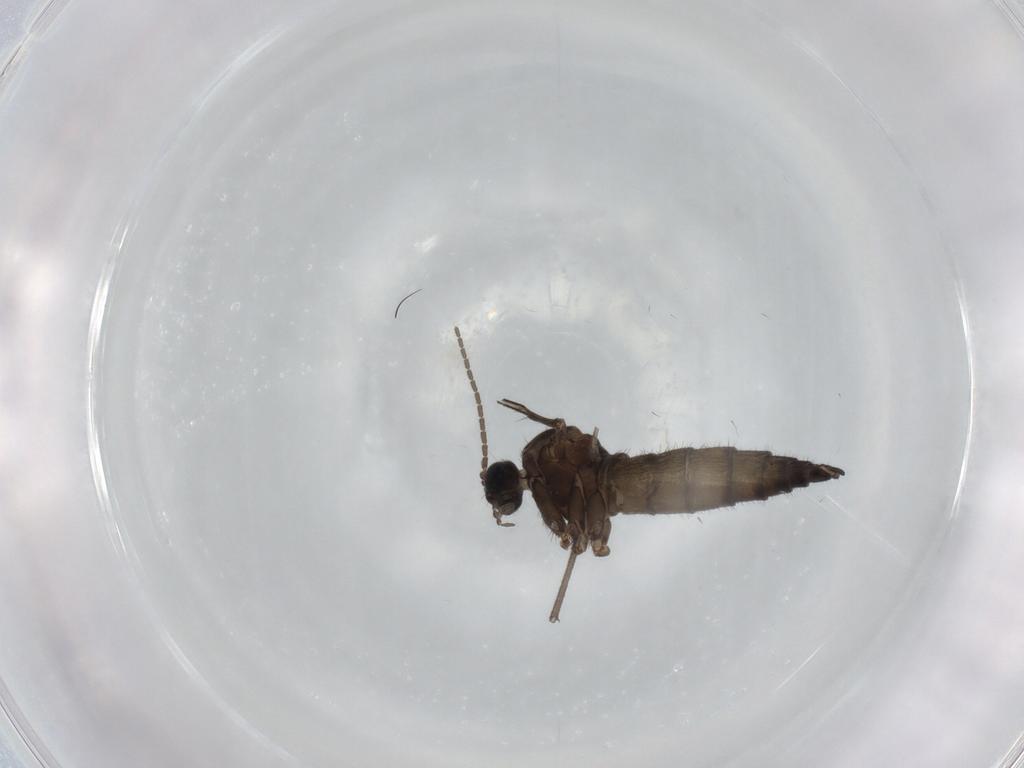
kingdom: Animalia
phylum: Arthropoda
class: Insecta
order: Diptera
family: Sciaridae
